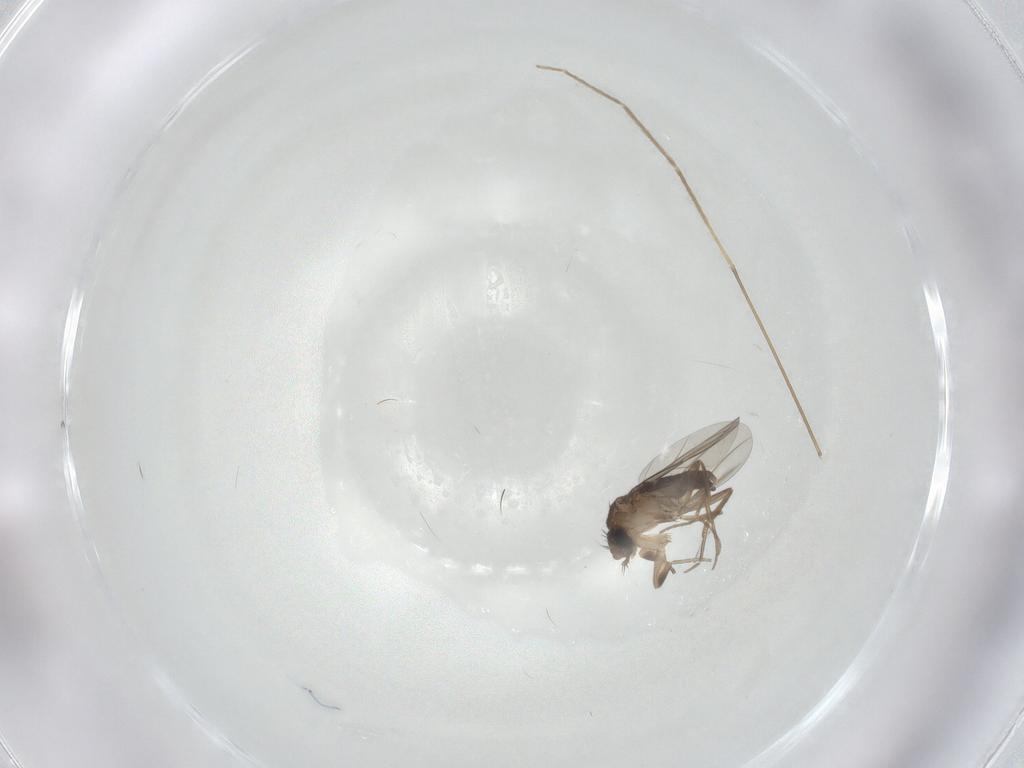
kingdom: Animalia
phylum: Arthropoda
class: Insecta
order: Diptera
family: Phoridae
